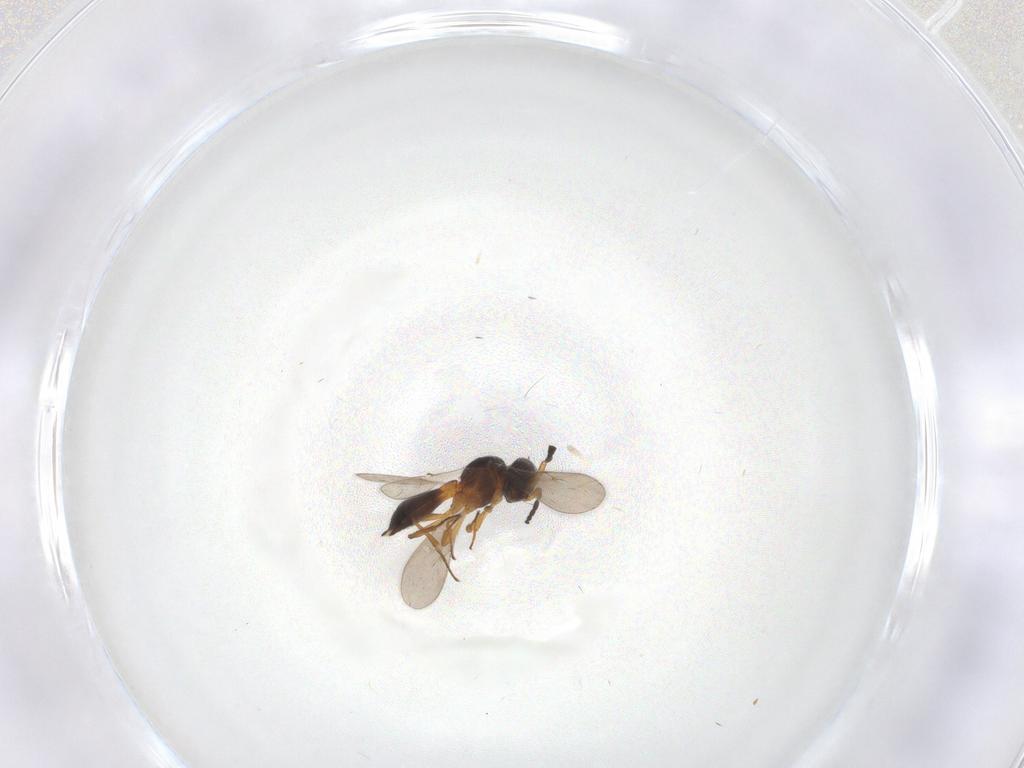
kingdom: Animalia
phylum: Arthropoda
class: Insecta
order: Hymenoptera
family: Scelionidae
